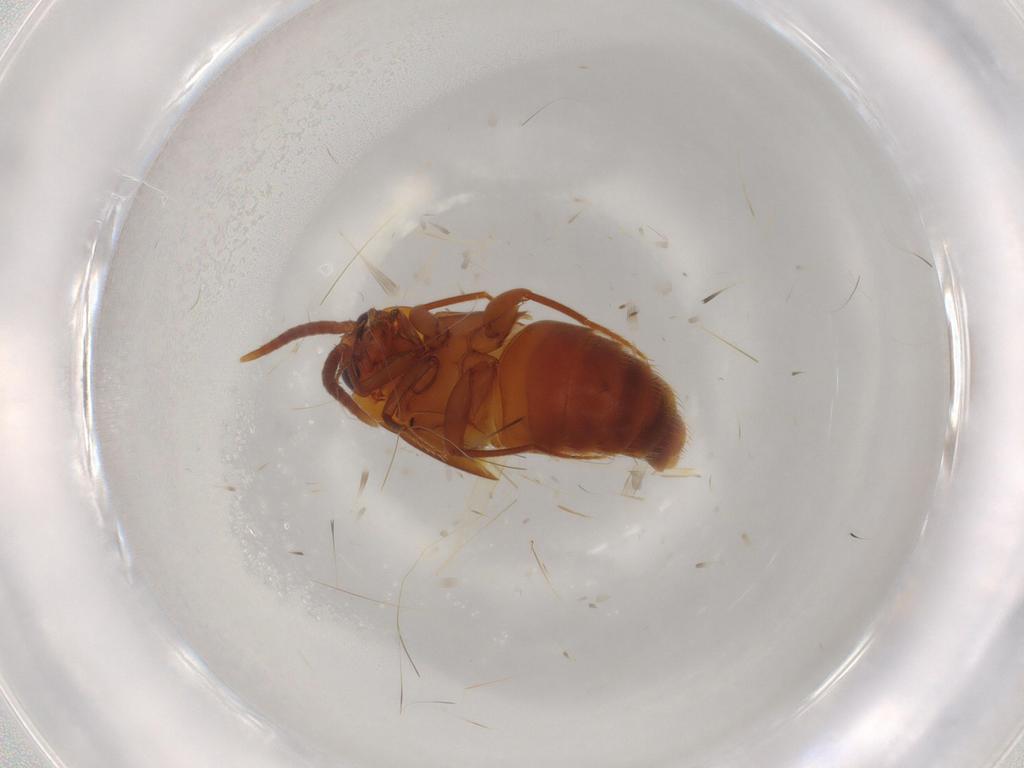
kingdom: Animalia
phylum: Arthropoda
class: Insecta
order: Coleoptera
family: Staphylinidae
